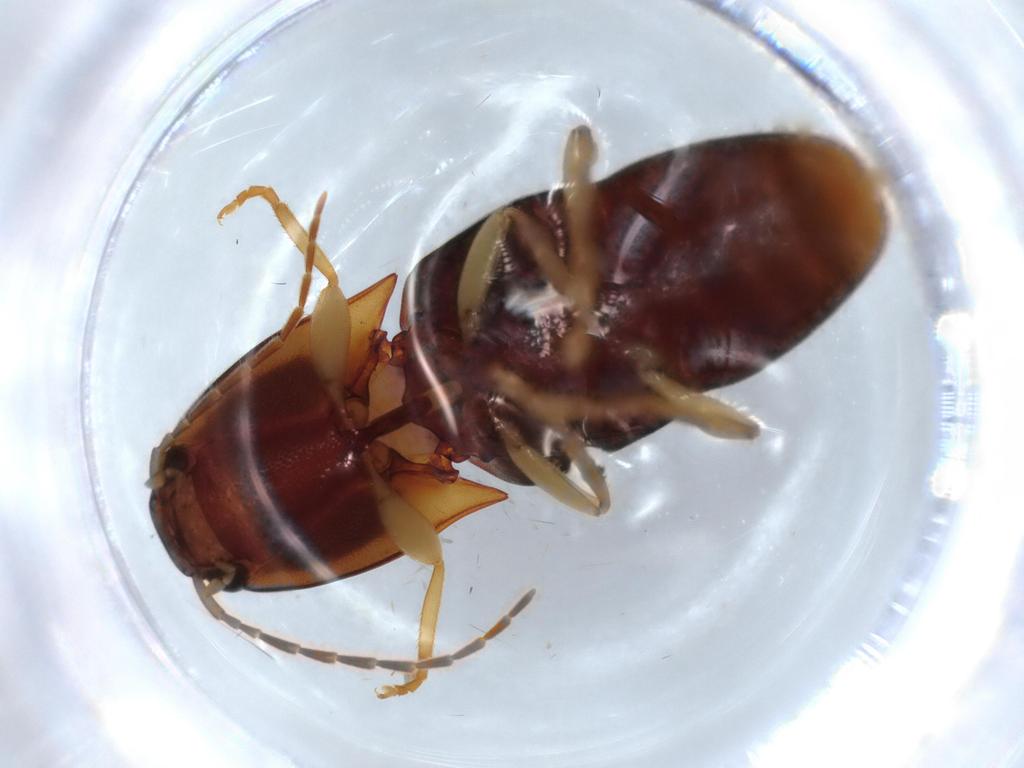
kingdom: Animalia
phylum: Arthropoda
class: Insecta
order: Coleoptera
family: Elateridae
